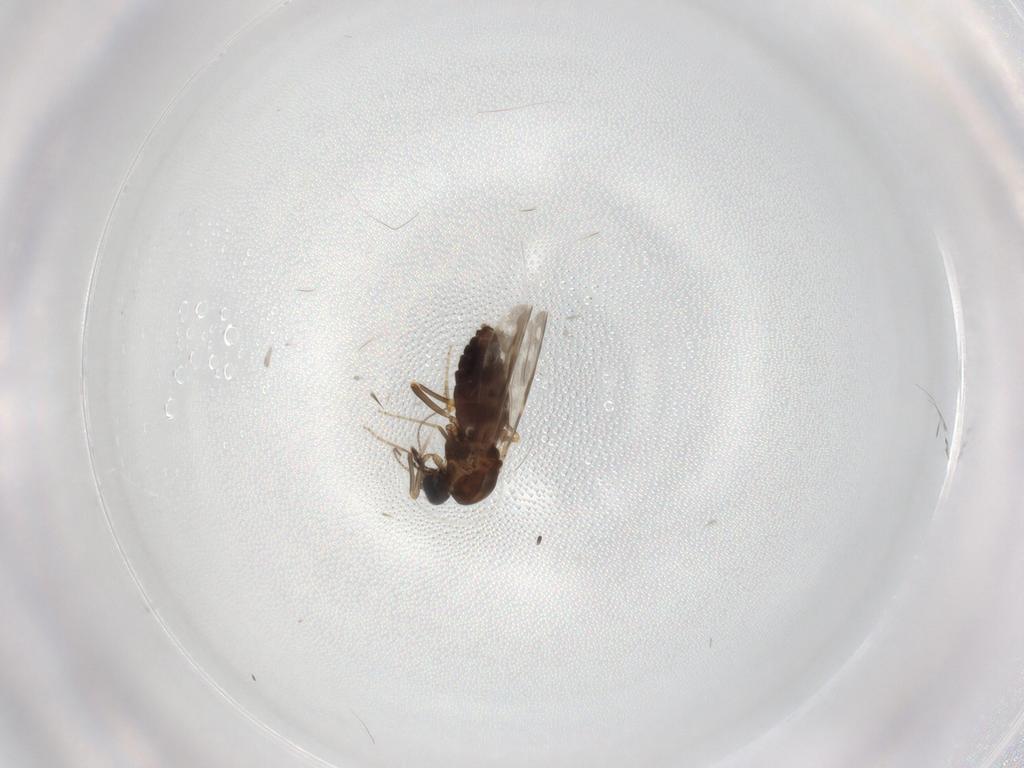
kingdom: Animalia
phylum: Arthropoda
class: Insecta
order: Diptera
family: Ceratopogonidae
